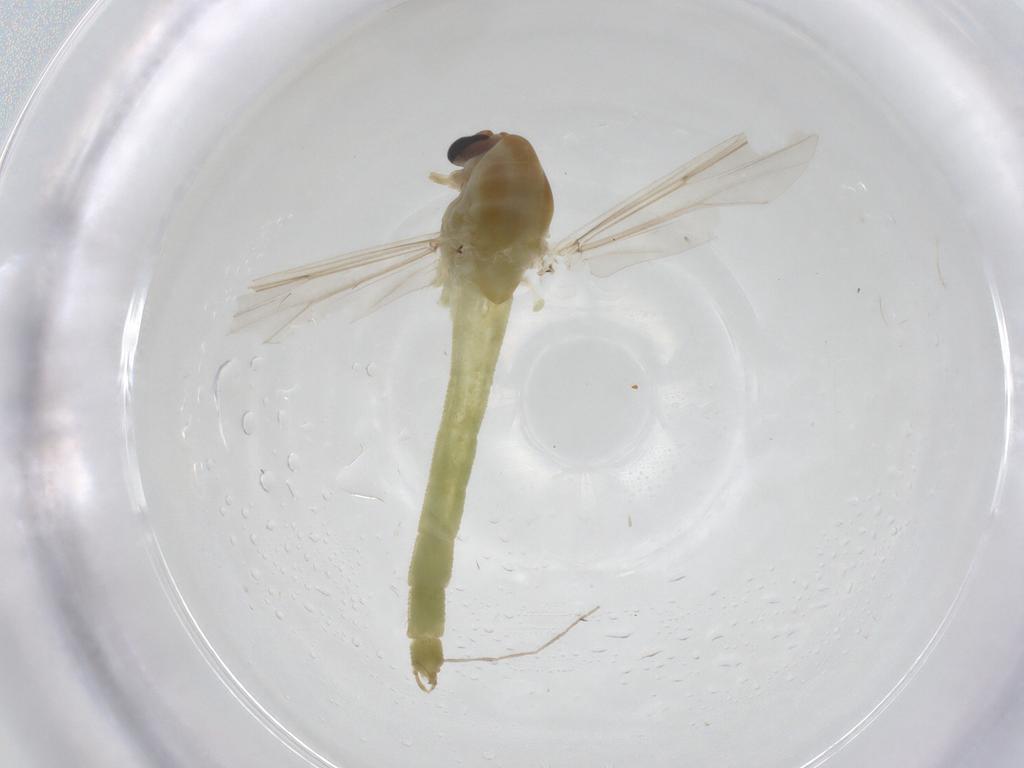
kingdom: Animalia
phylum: Arthropoda
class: Insecta
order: Diptera
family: Chironomidae
